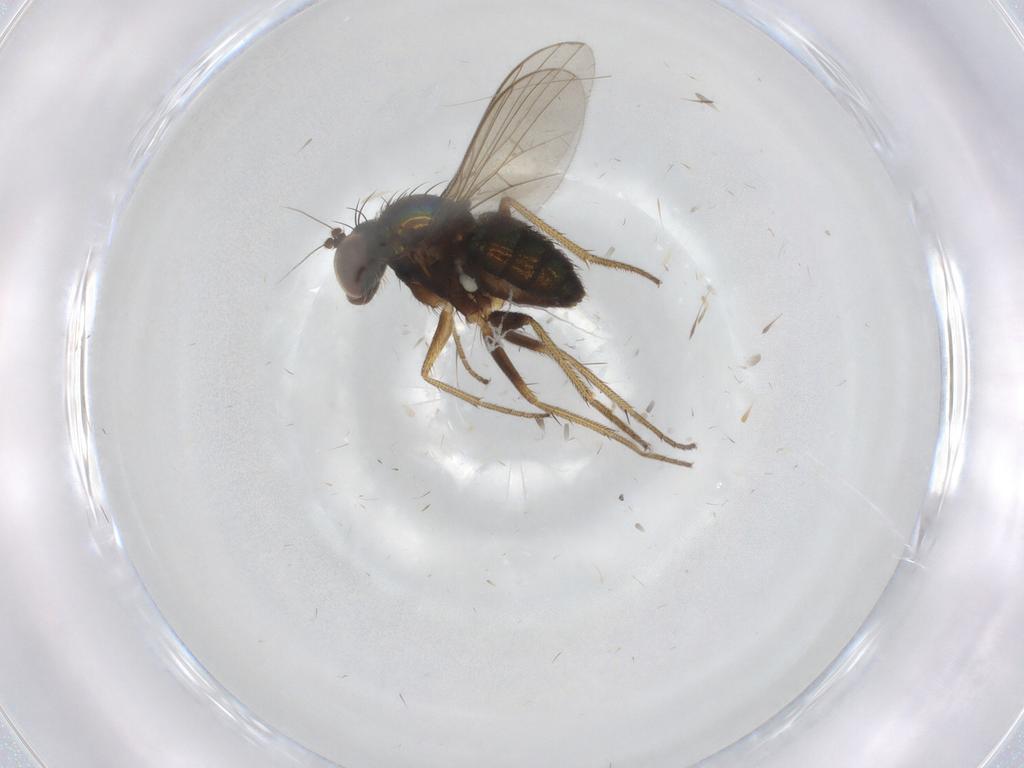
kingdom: Animalia
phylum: Arthropoda
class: Insecta
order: Diptera
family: Dolichopodidae
